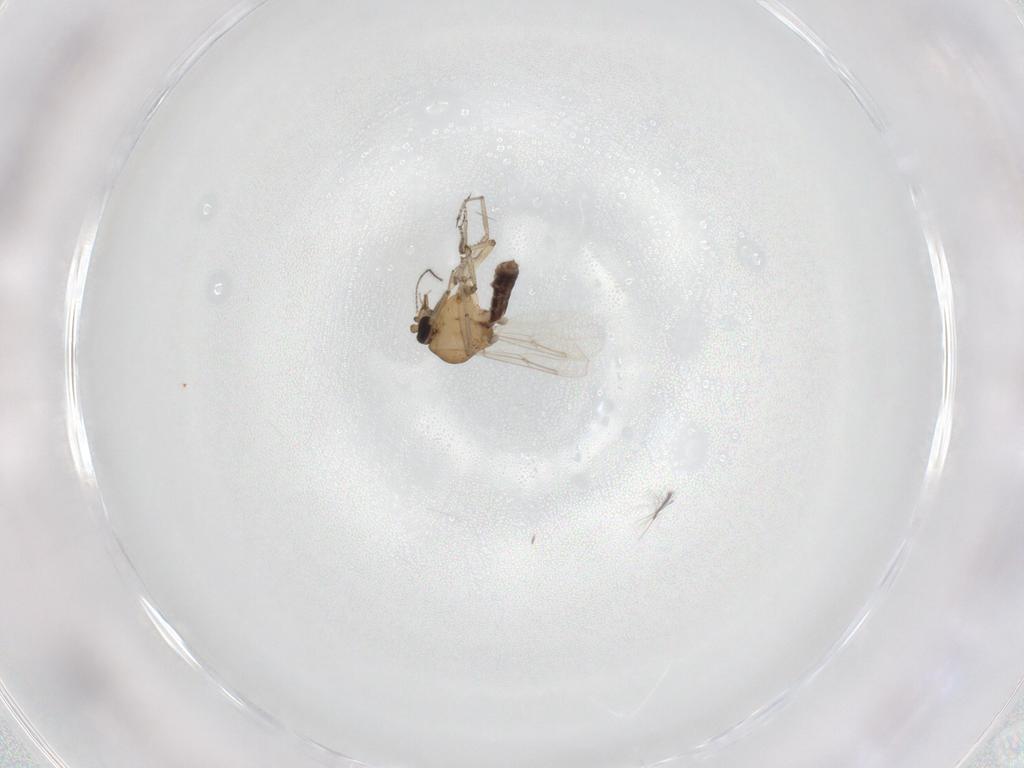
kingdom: Animalia
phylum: Arthropoda
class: Insecta
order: Diptera
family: Ceratopogonidae
